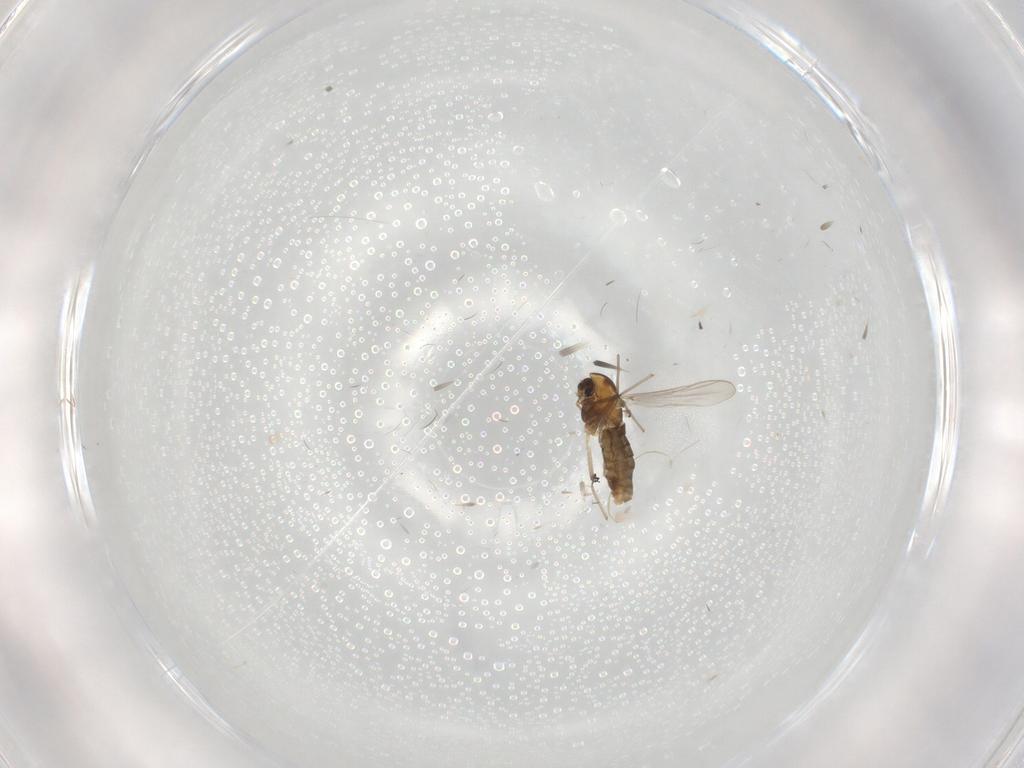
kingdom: Animalia
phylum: Arthropoda
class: Insecta
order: Diptera
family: Chironomidae
